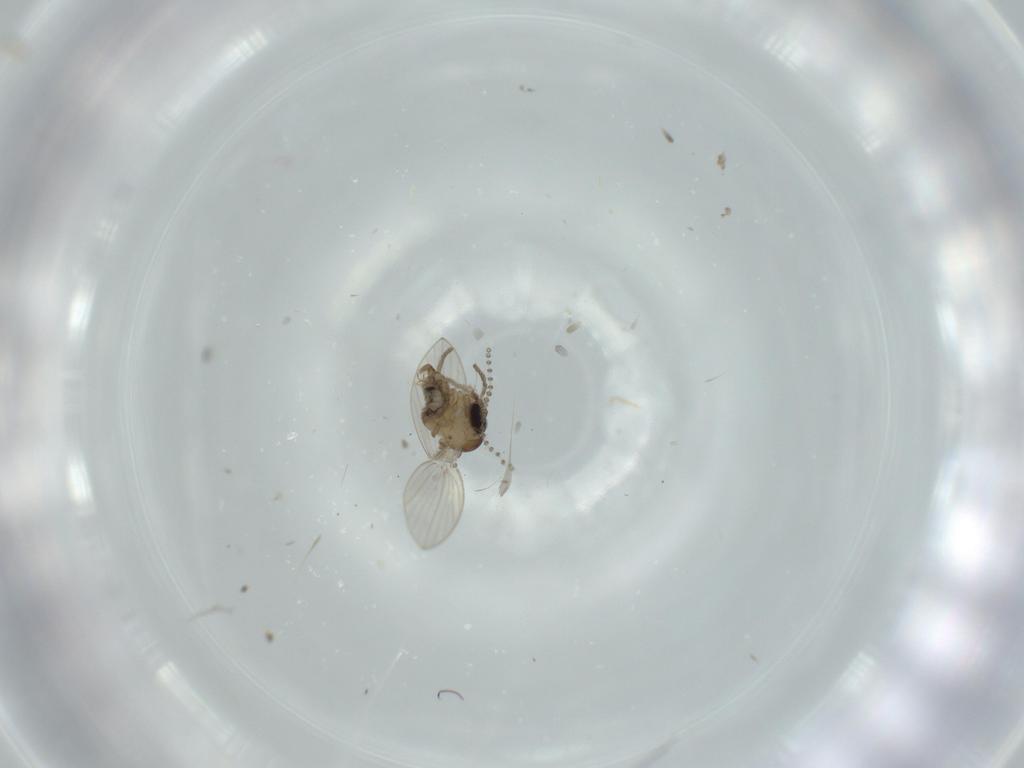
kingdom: Animalia
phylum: Arthropoda
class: Insecta
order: Diptera
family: Psychodidae
